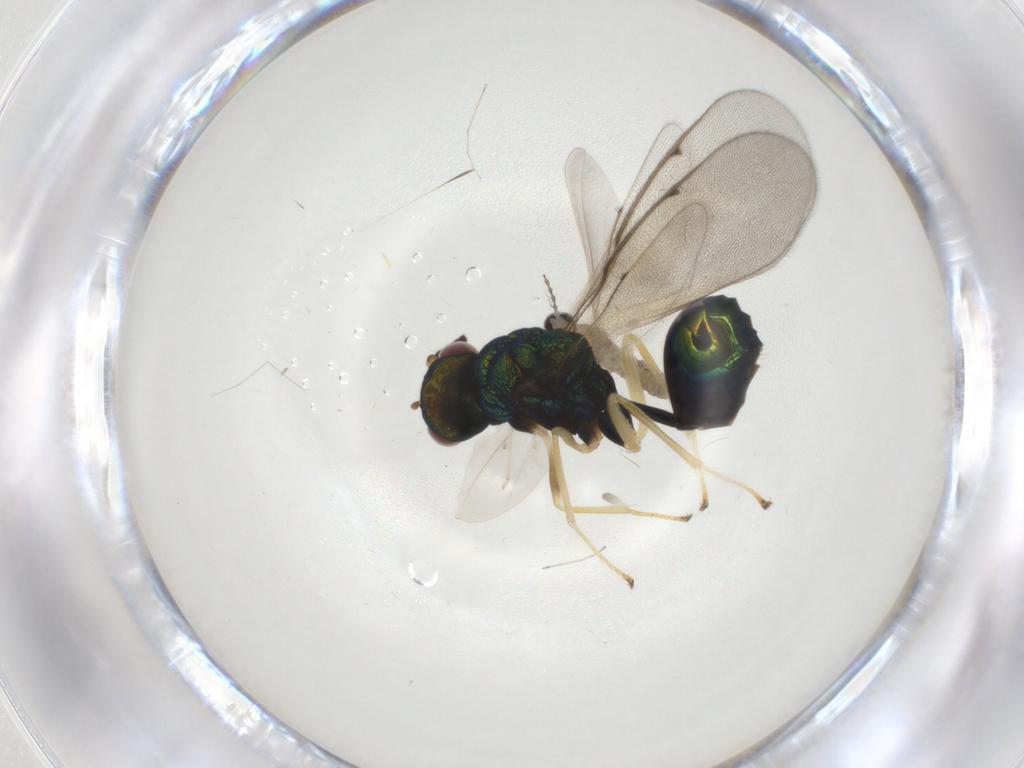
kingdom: Animalia
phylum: Arthropoda
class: Insecta
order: Diptera
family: Cecidomyiidae
